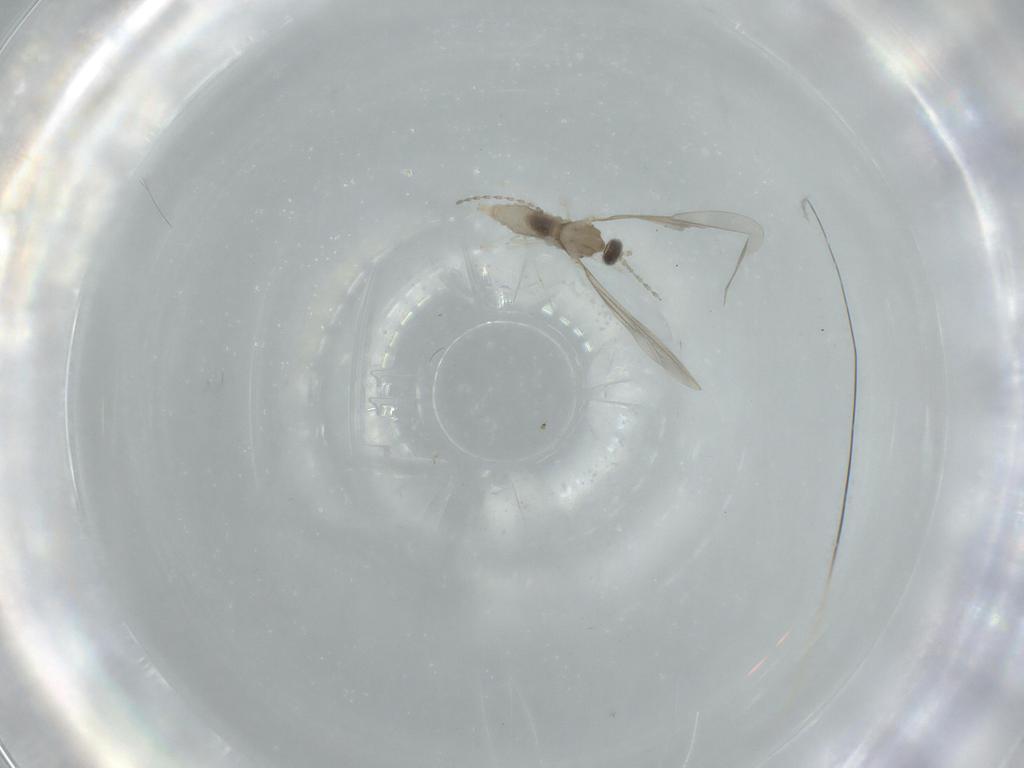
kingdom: Animalia
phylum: Arthropoda
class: Insecta
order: Diptera
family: Cecidomyiidae
